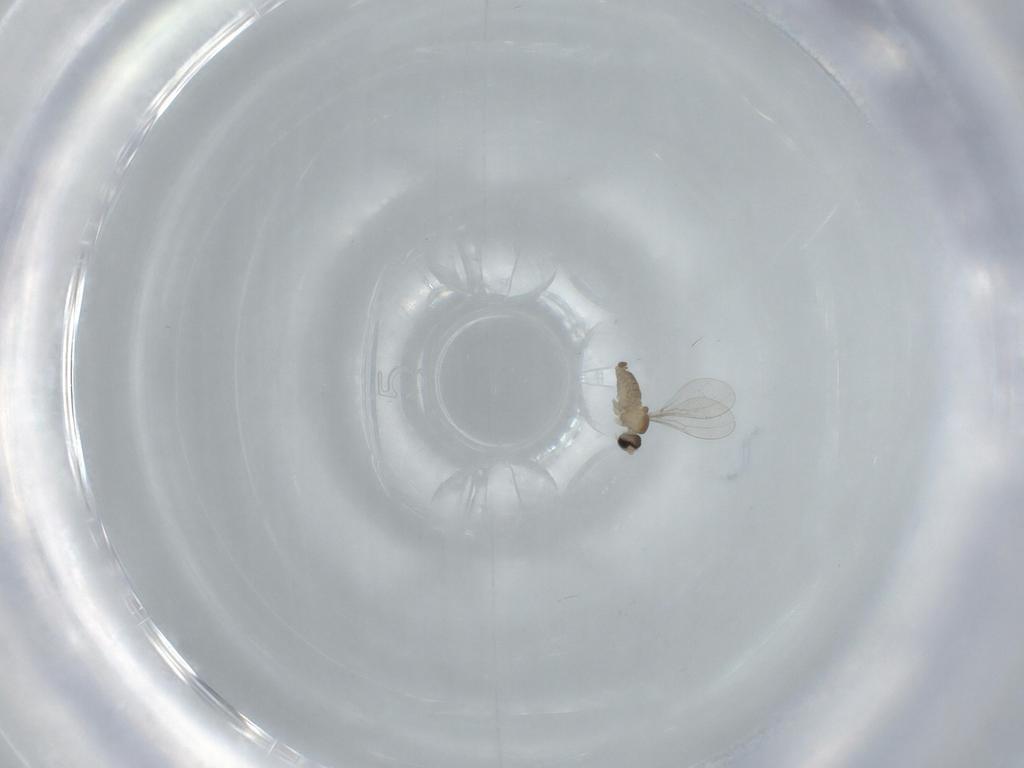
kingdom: Animalia
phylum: Arthropoda
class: Insecta
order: Diptera
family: Cecidomyiidae
